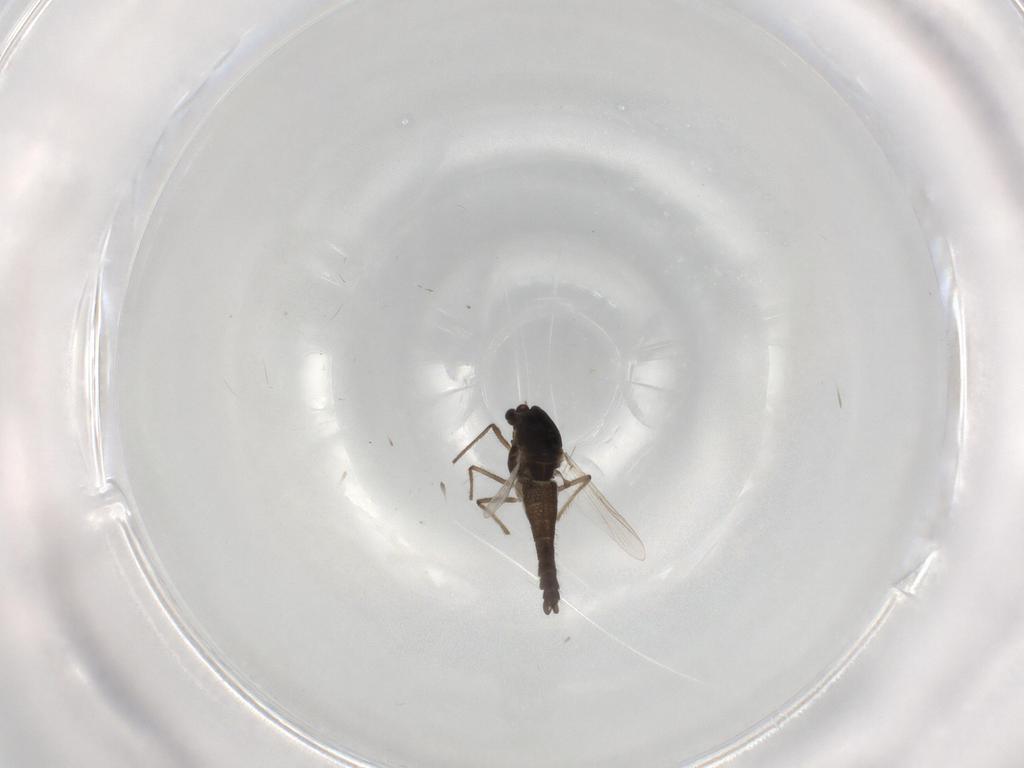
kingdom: Animalia
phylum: Arthropoda
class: Insecta
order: Diptera
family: Chironomidae
